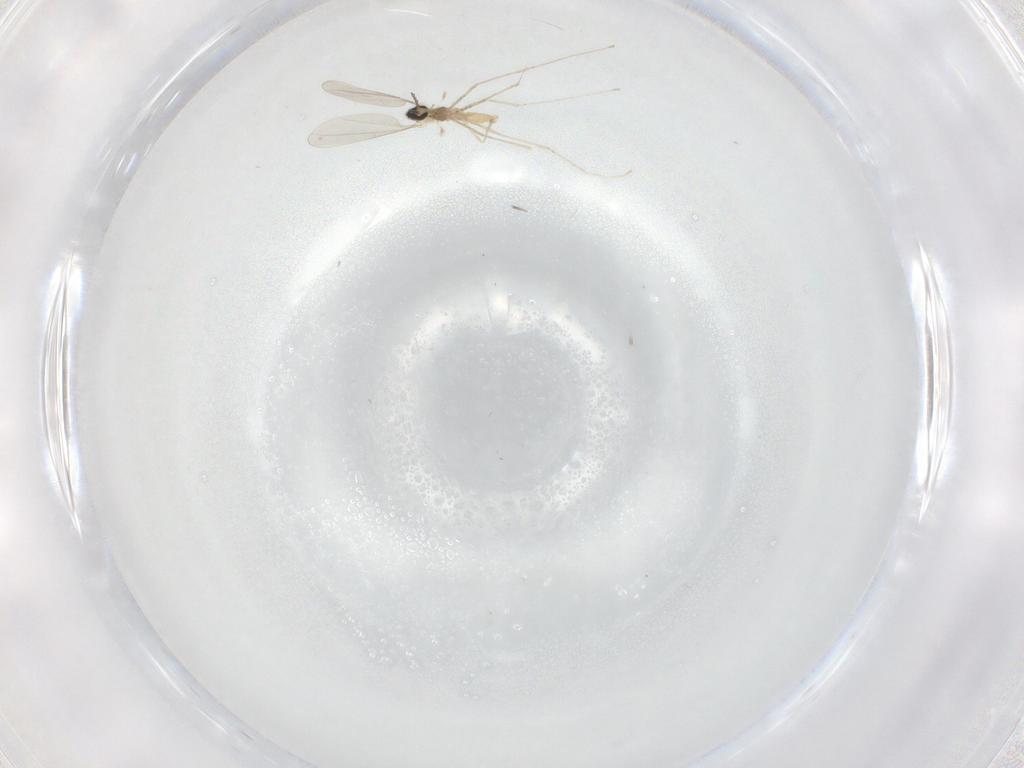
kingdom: Animalia
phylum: Arthropoda
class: Insecta
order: Diptera
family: Cecidomyiidae
